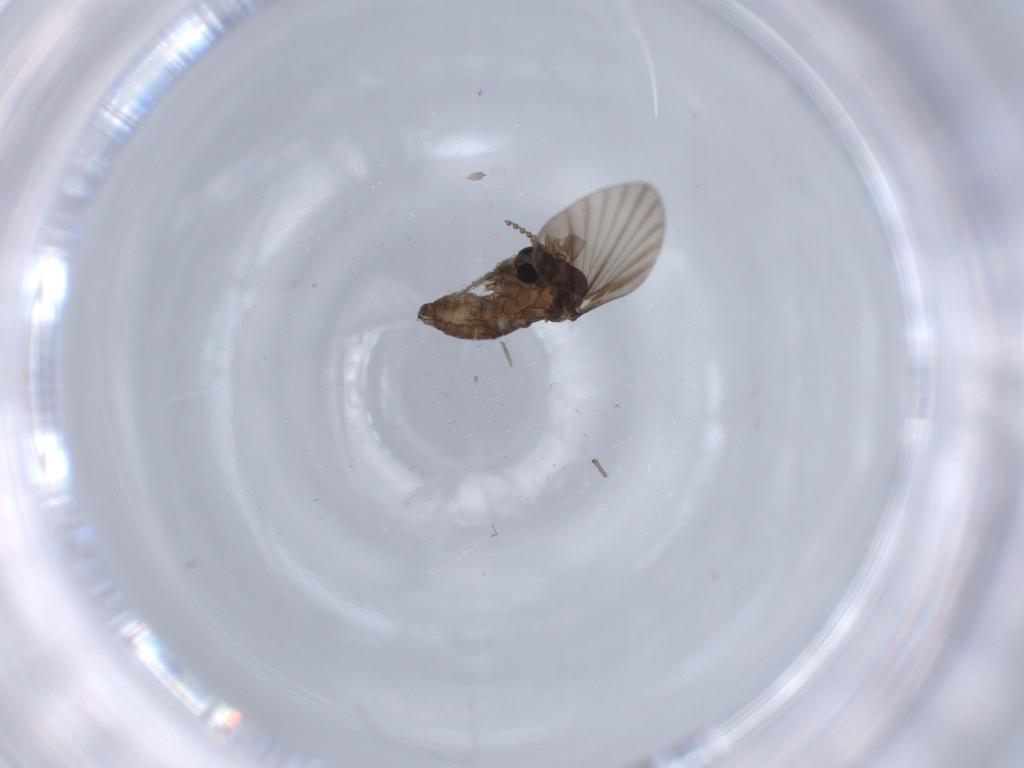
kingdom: Animalia
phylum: Arthropoda
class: Insecta
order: Diptera
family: Psychodidae
